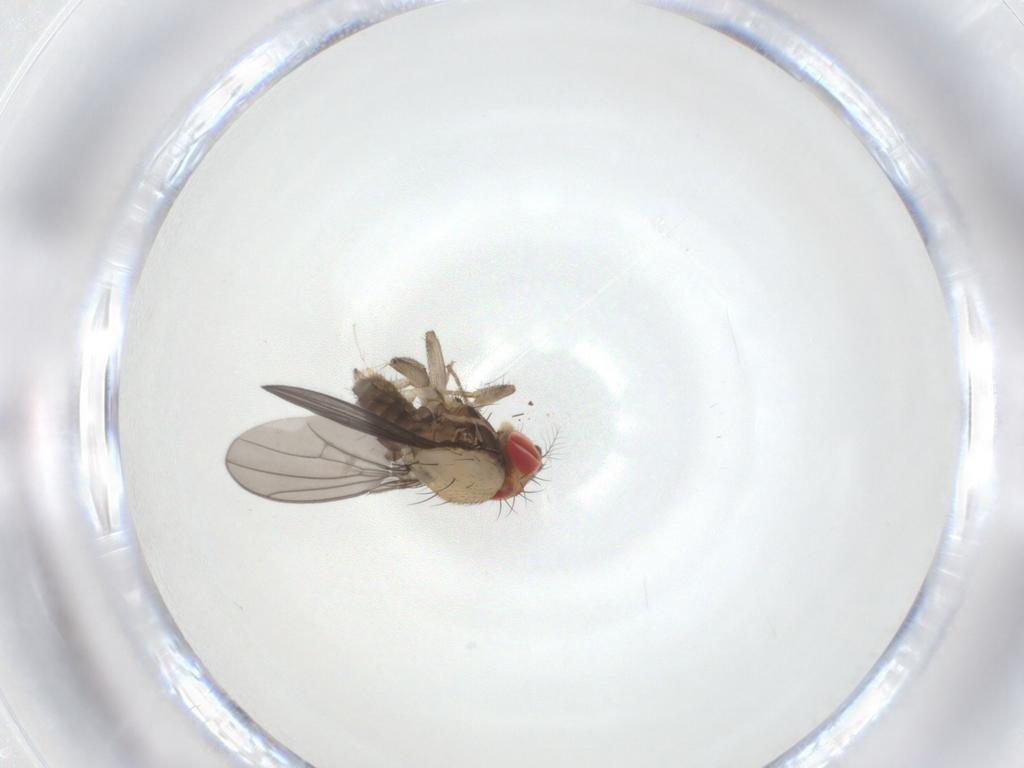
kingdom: Animalia
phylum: Arthropoda
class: Insecta
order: Diptera
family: Drosophilidae
